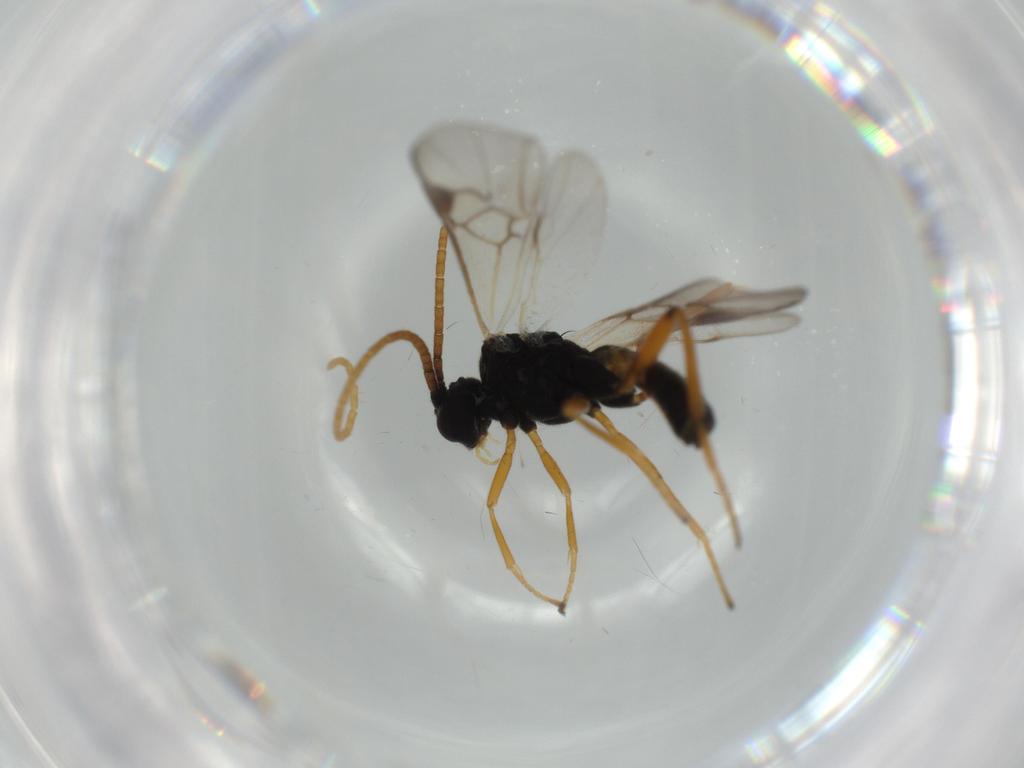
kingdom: Animalia
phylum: Arthropoda
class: Insecta
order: Hymenoptera
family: Braconidae
